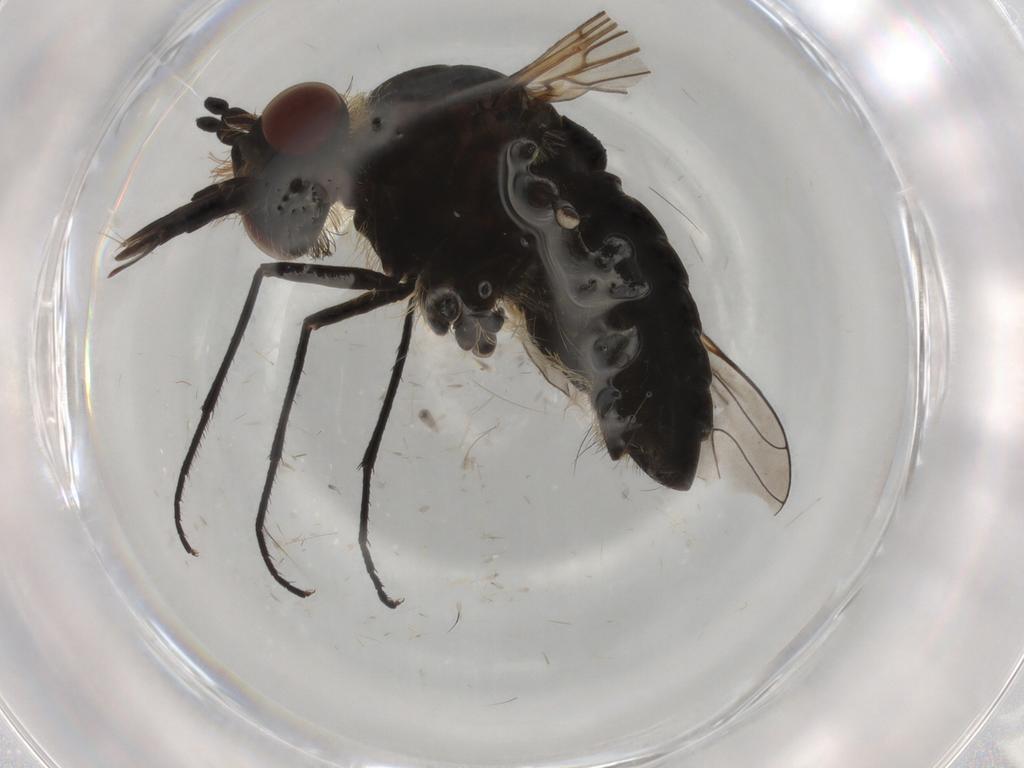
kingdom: Animalia
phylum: Arthropoda
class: Insecta
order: Diptera
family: Bombyliidae
